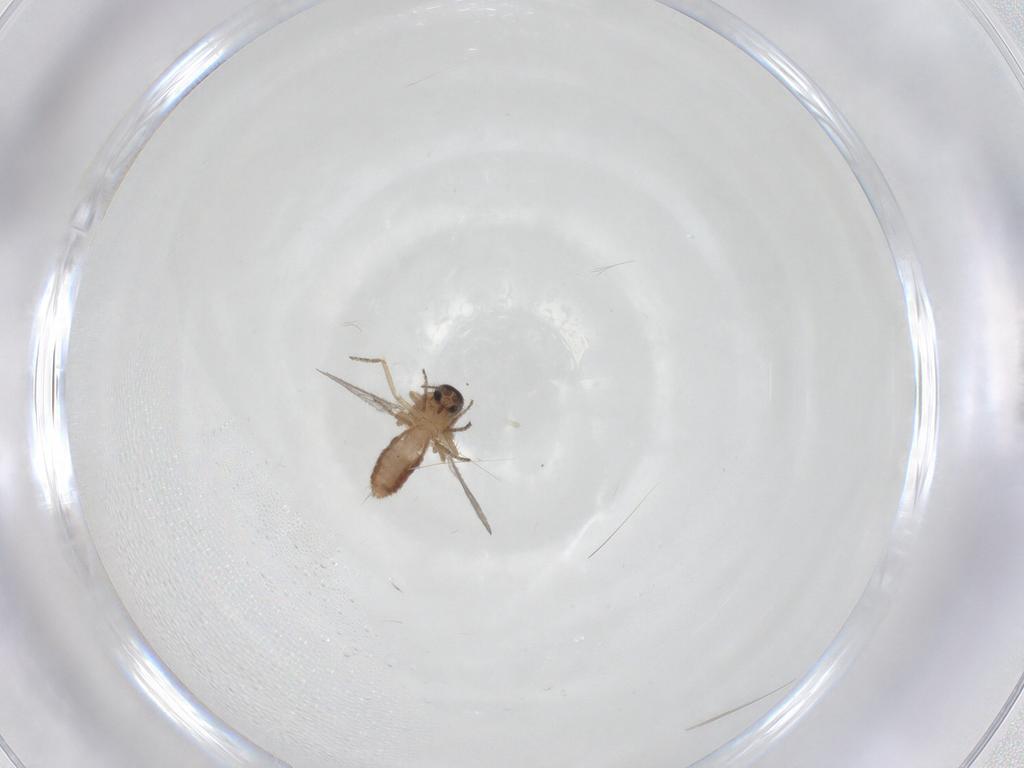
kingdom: Animalia
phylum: Arthropoda
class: Insecta
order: Diptera
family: Ceratopogonidae
